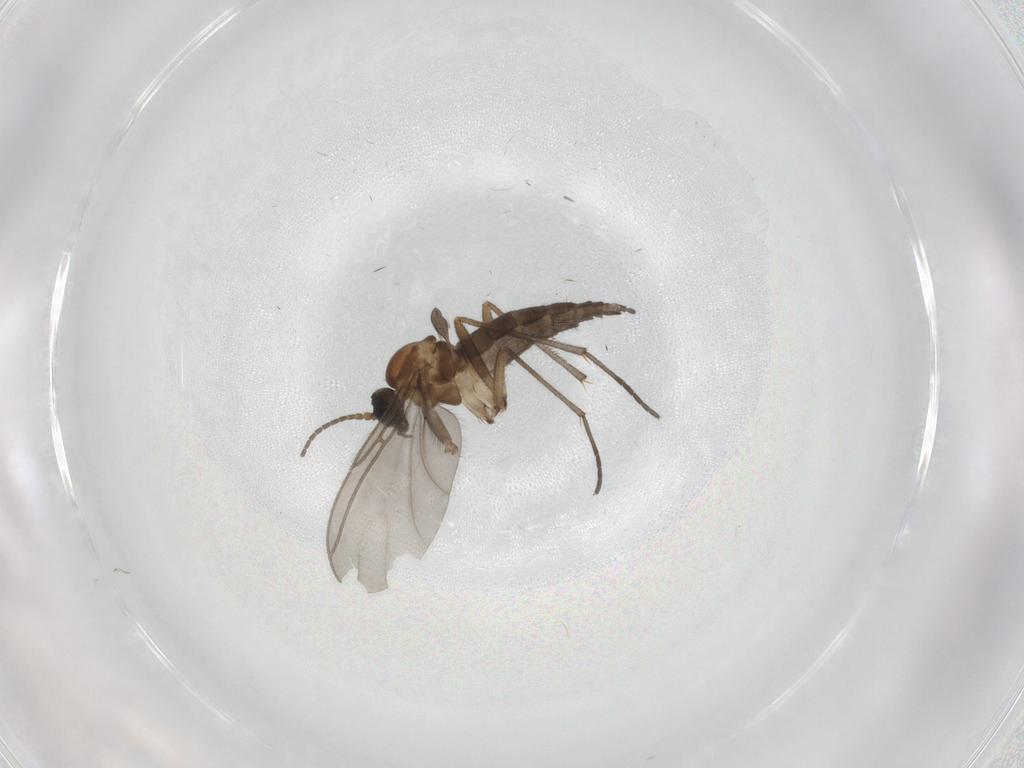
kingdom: Animalia
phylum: Arthropoda
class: Insecta
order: Diptera
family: Sciaridae
